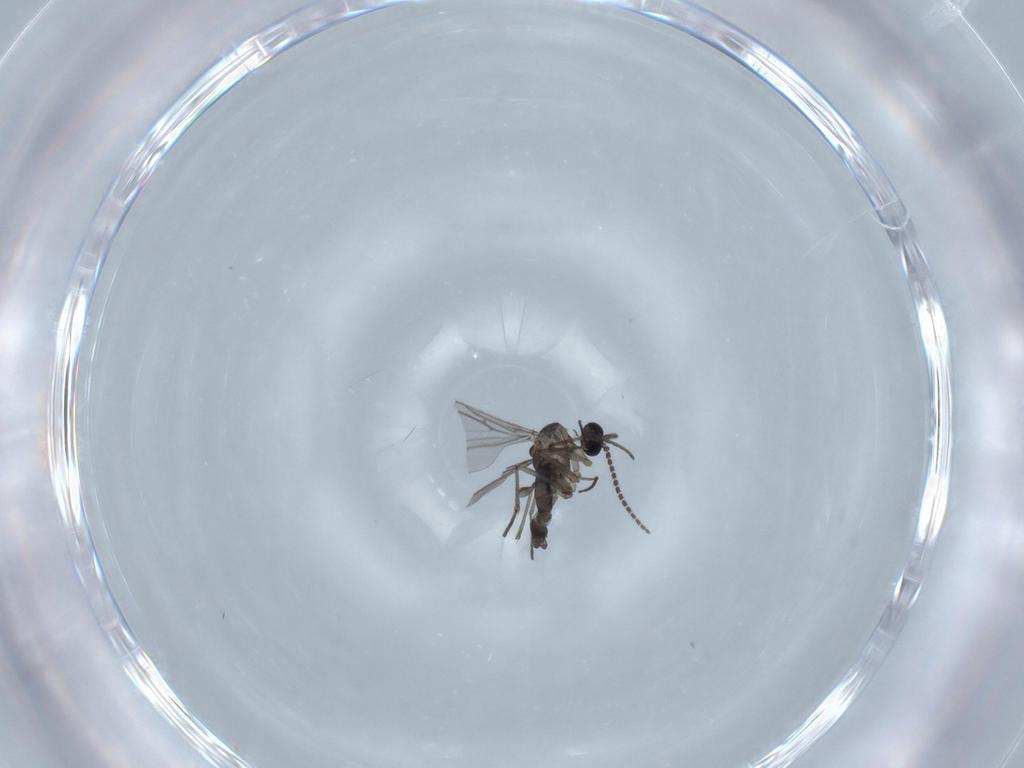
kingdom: Animalia
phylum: Arthropoda
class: Insecta
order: Diptera
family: Sciaridae
